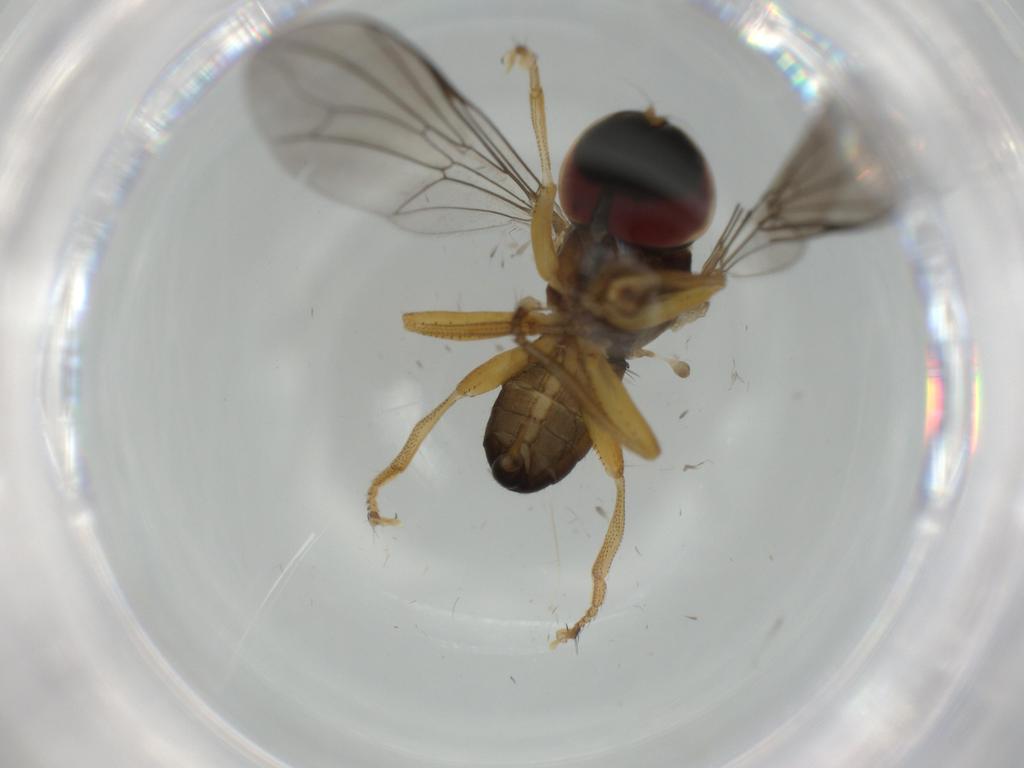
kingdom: Animalia
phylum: Arthropoda
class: Insecta
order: Diptera
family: Pipunculidae
